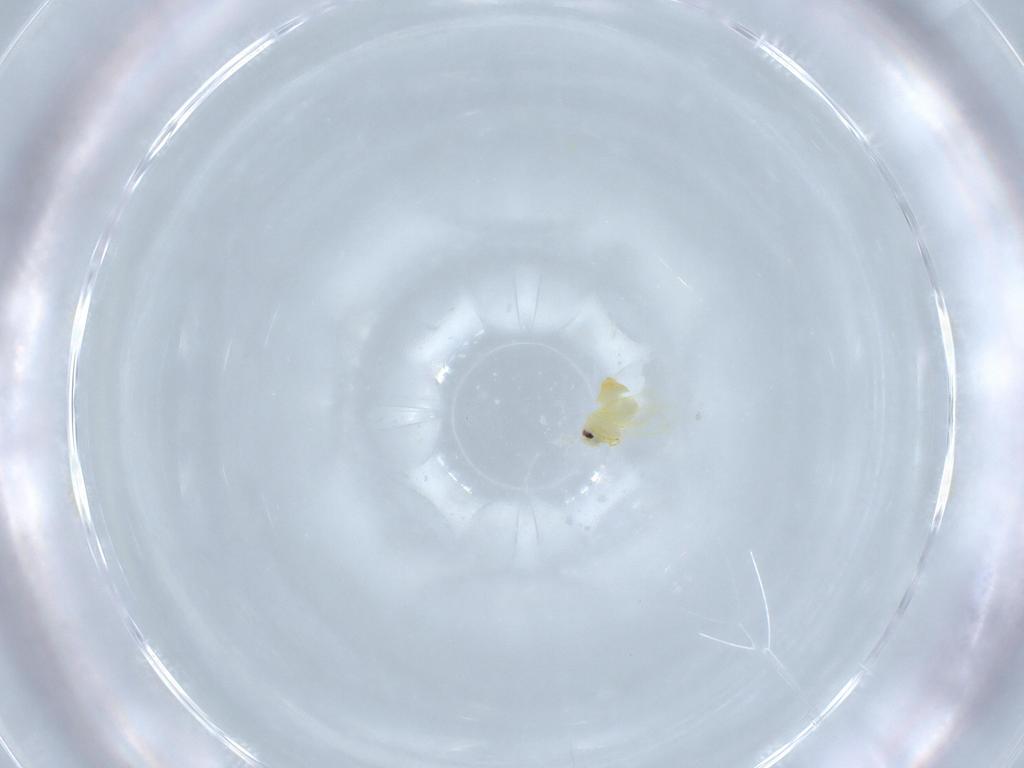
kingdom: Animalia
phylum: Arthropoda
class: Insecta
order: Hemiptera
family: Aleyrodidae
